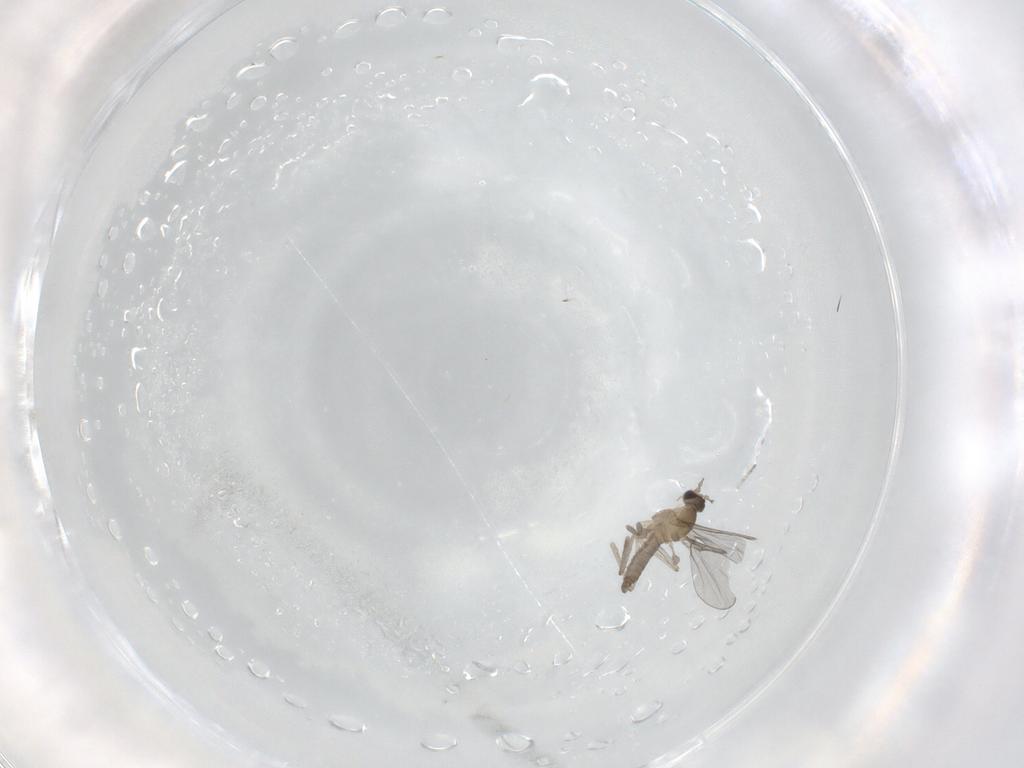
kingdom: Animalia
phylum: Arthropoda
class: Insecta
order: Diptera
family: Cecidomyiidae
